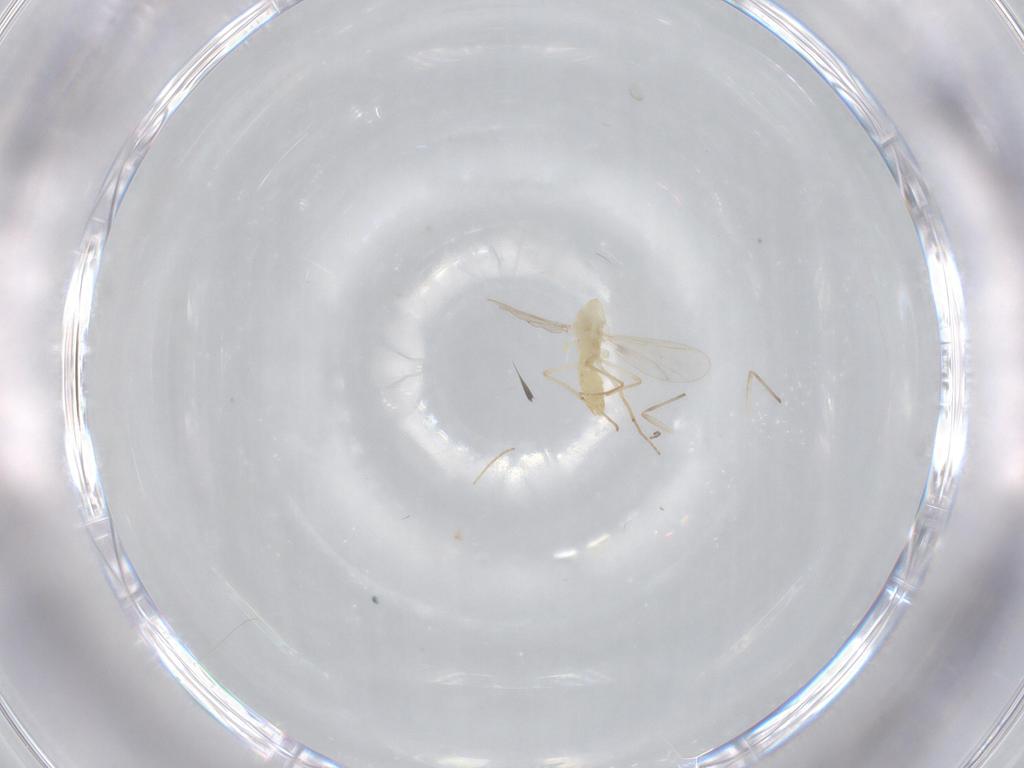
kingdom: Animalia
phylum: Arthropoda
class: Insecta
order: Diptera
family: Chironomidae
